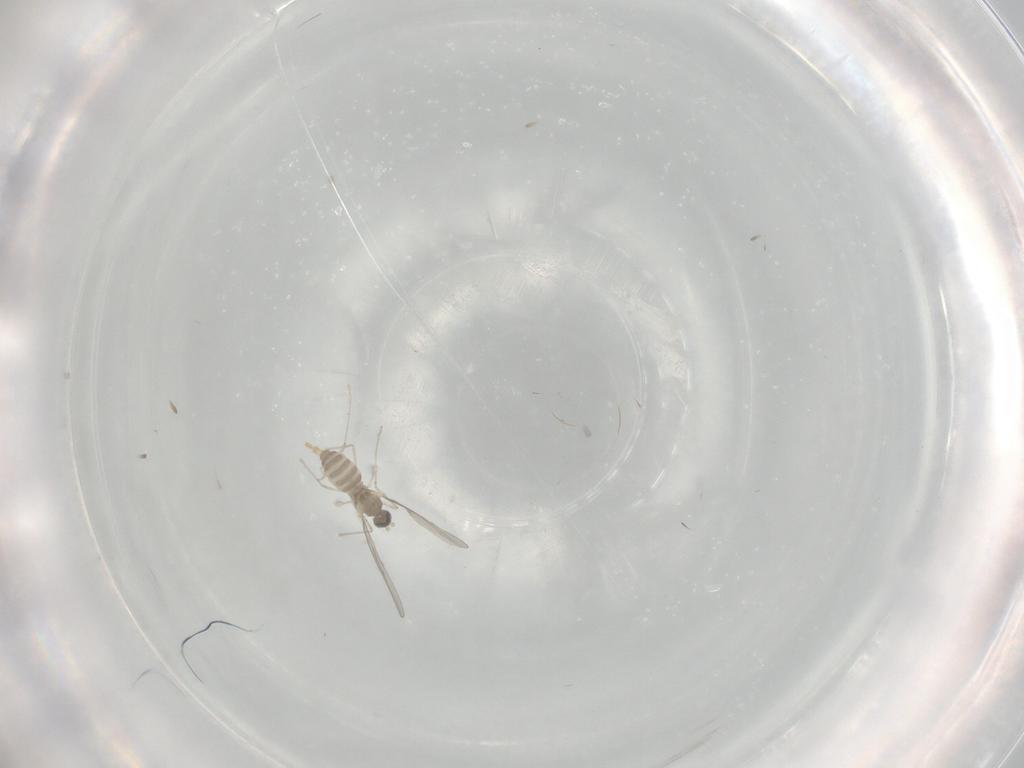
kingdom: Animalia
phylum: Arthropoda
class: Insecta
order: Diptera
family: Cecidomyiidae
